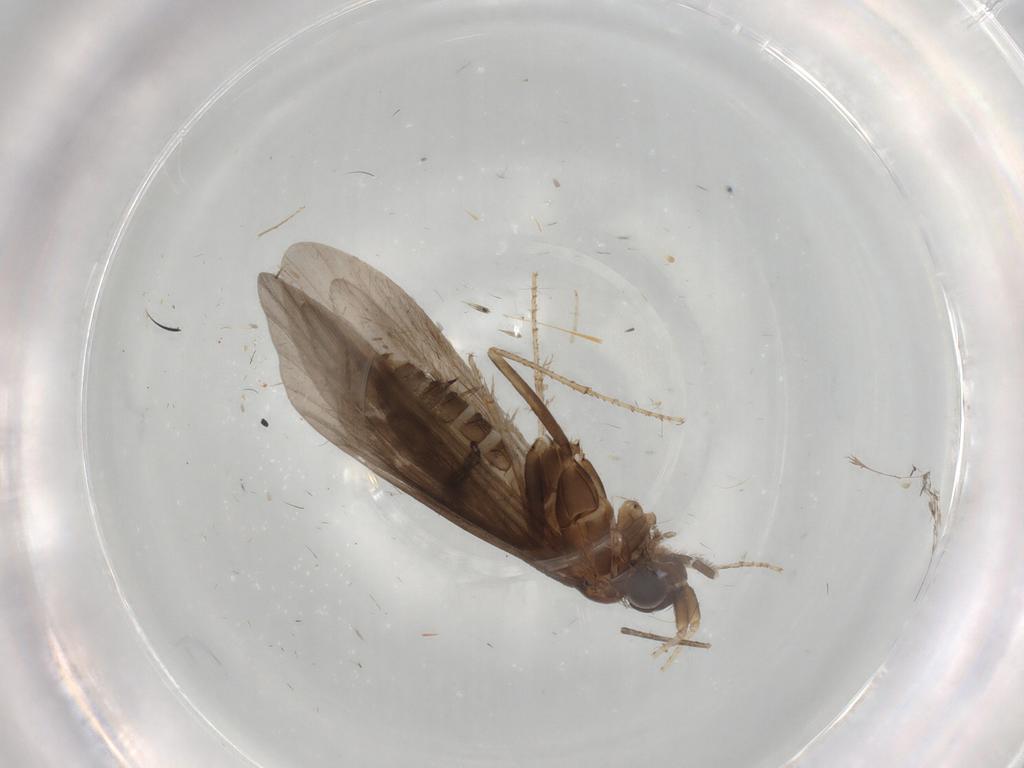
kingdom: Animalia
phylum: Arthropoda
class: Insecta
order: Trichoptera
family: Helicopsychidae
